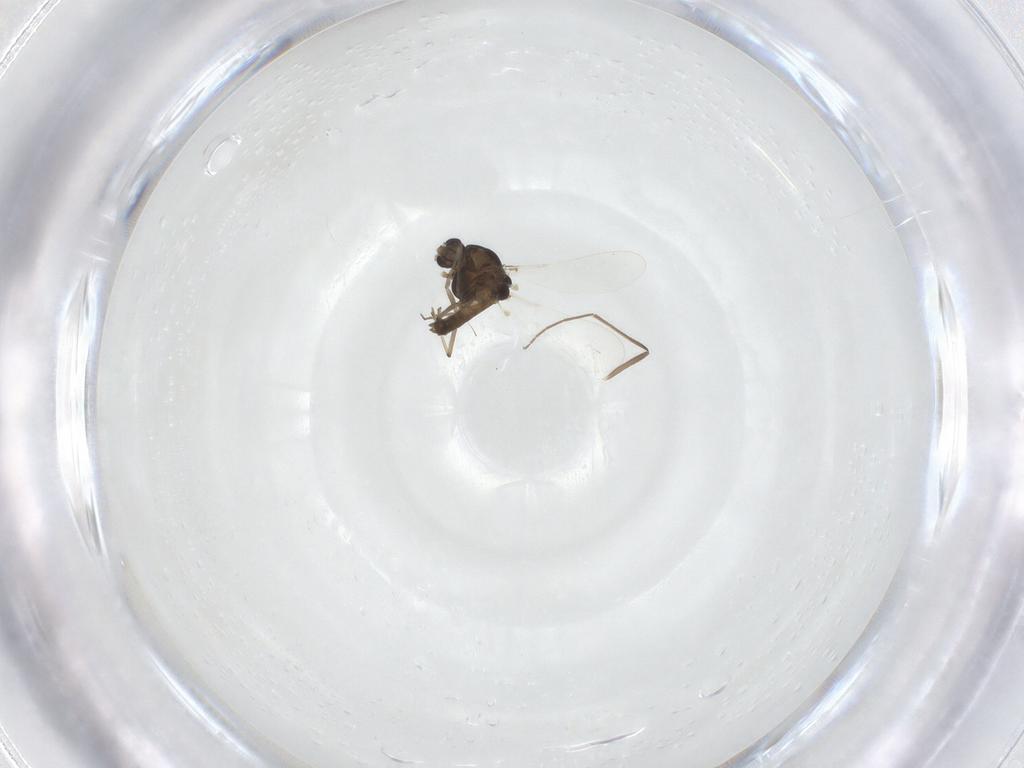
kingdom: Animalia
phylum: Arthropoda
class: Insecta
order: Diptera
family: Chironomidae
